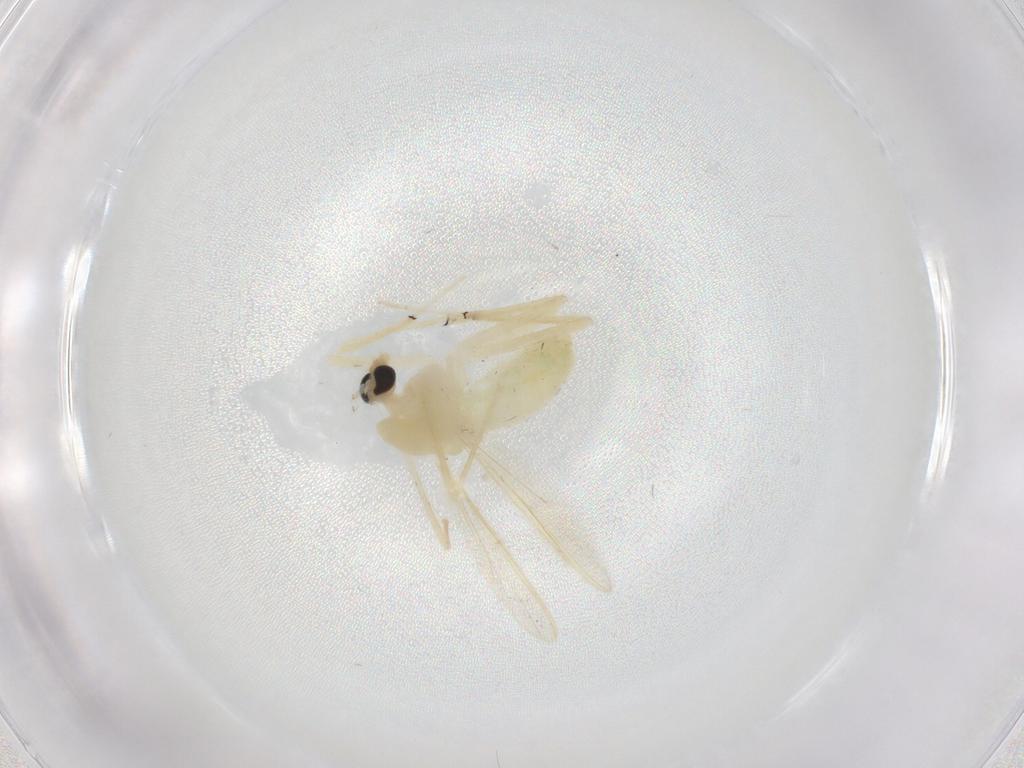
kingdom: Animalia
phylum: Arthropoda
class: Insecta
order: Diptera
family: Chironomidae
